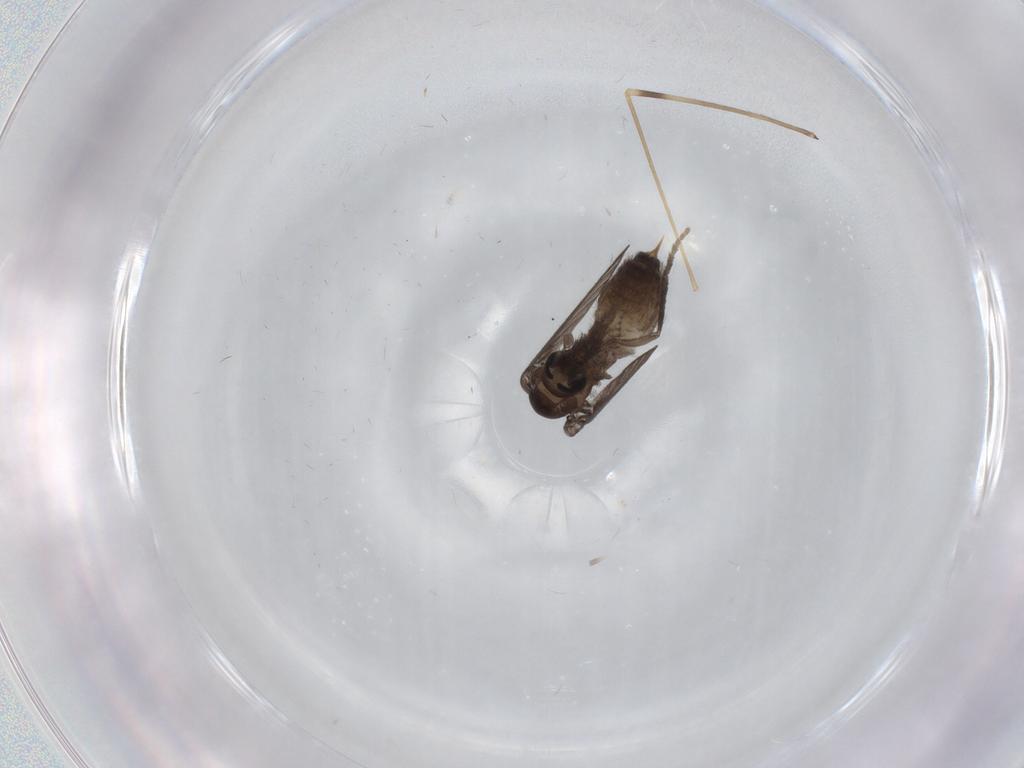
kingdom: Animalia
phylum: Arthropoda
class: Insecta
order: Diptera
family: Psychodidae
